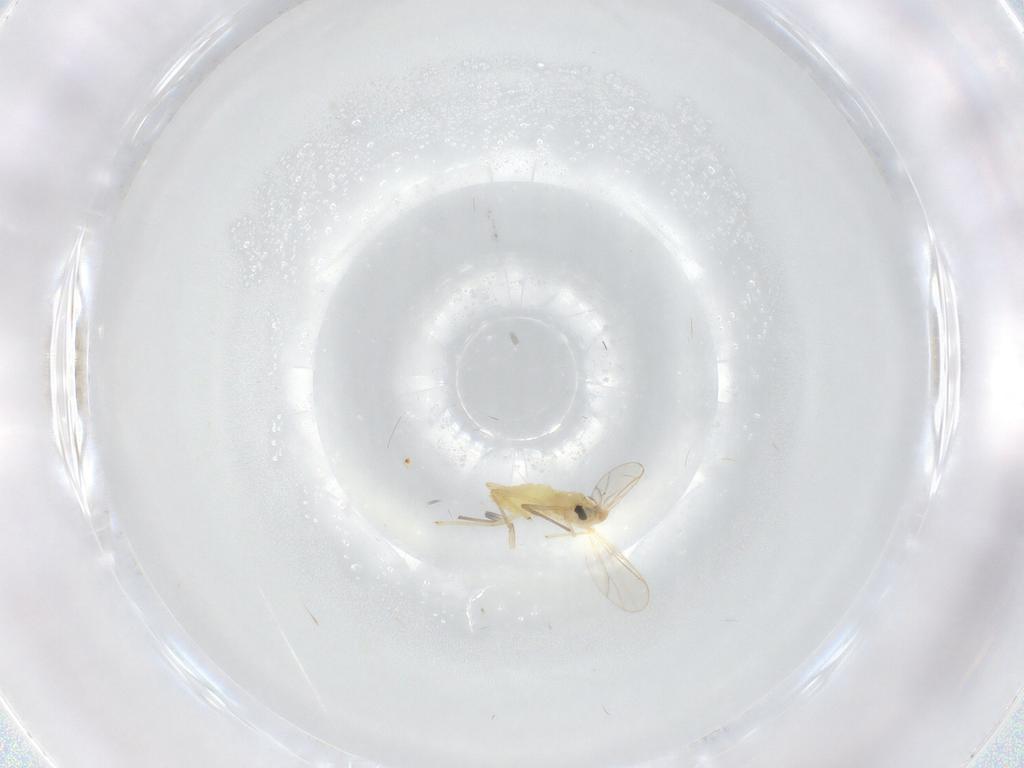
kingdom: Animalia
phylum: Arthropoda
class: Insecta
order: Diptera
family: Chironomidae
